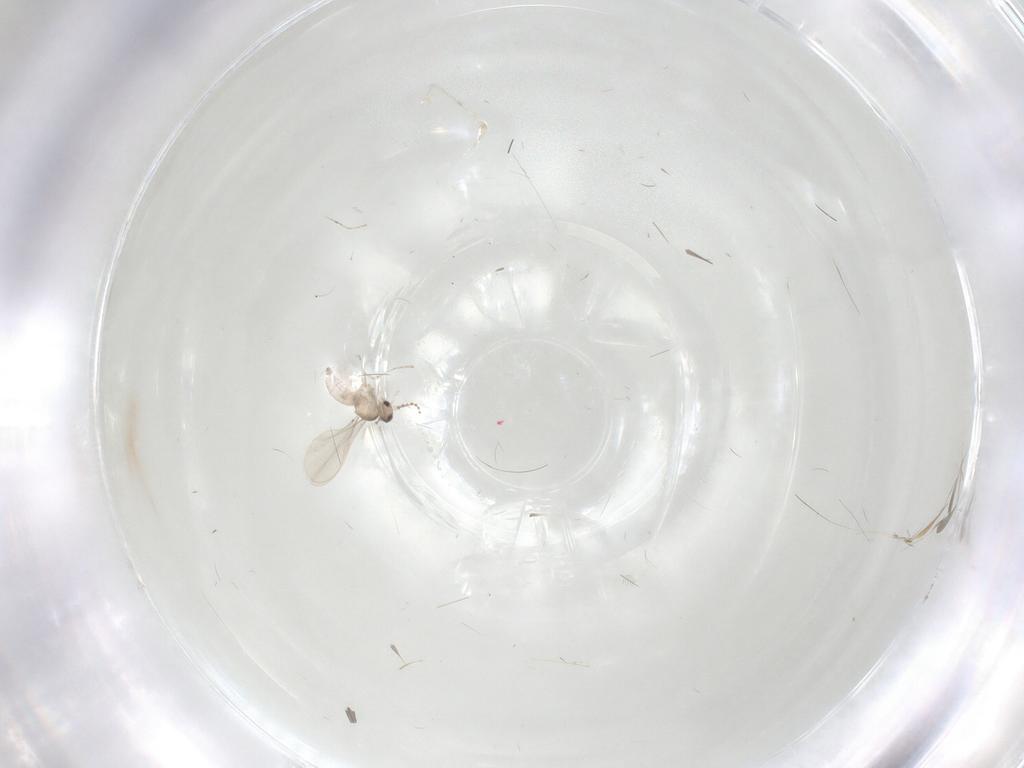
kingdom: Animalia
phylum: Arthropoda
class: Insecta
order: Diptera
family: Cecidomyiidae
